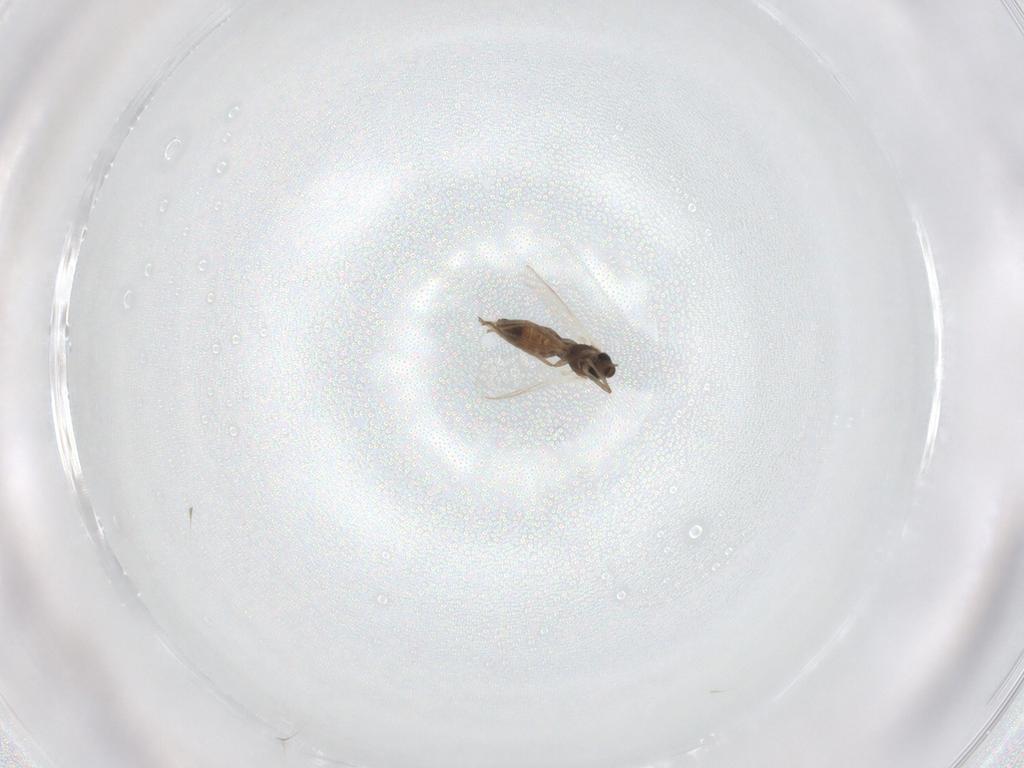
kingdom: Animalia
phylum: Arthropoda
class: Insecta
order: Diptera
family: Chironomidae
